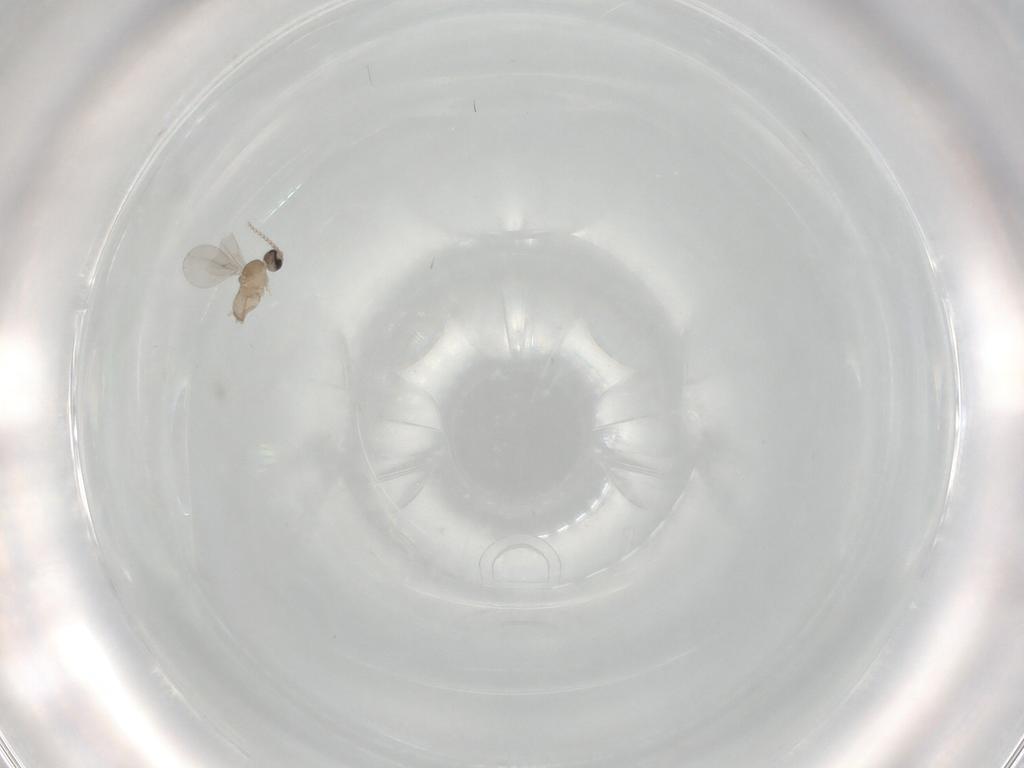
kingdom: Animalia
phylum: Arthropoda
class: Insecta
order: Diptera
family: Cecidomyiidae
